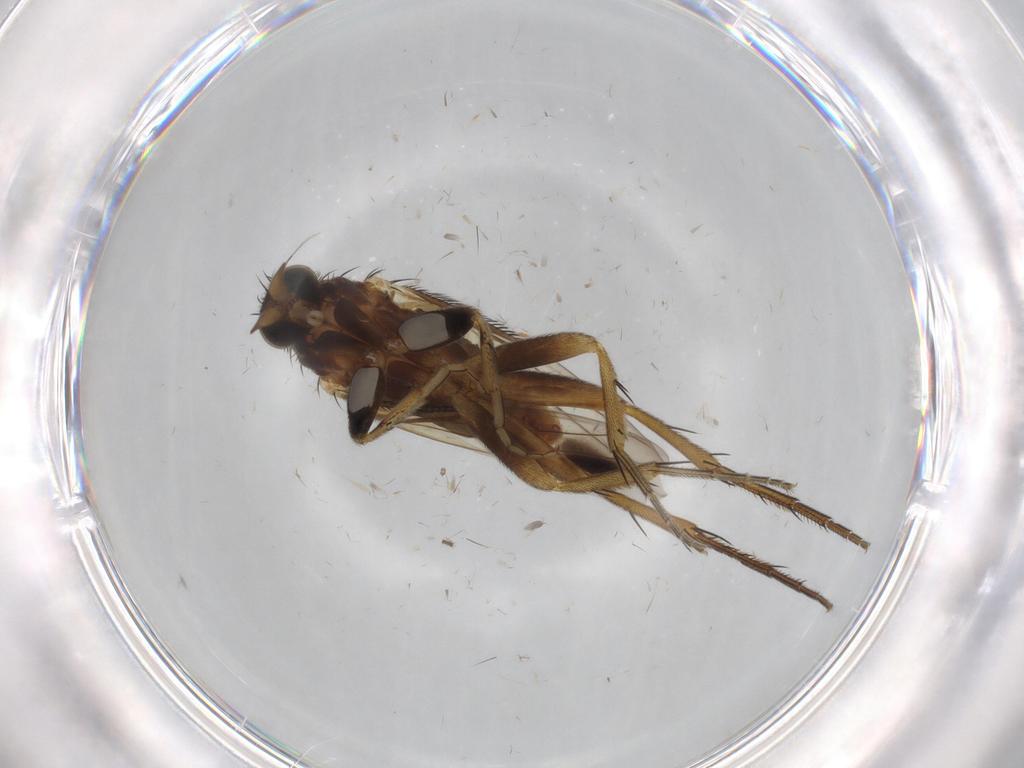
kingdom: Animalia
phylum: Arthropoda
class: Insecta
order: Diptera
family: Phoridae
